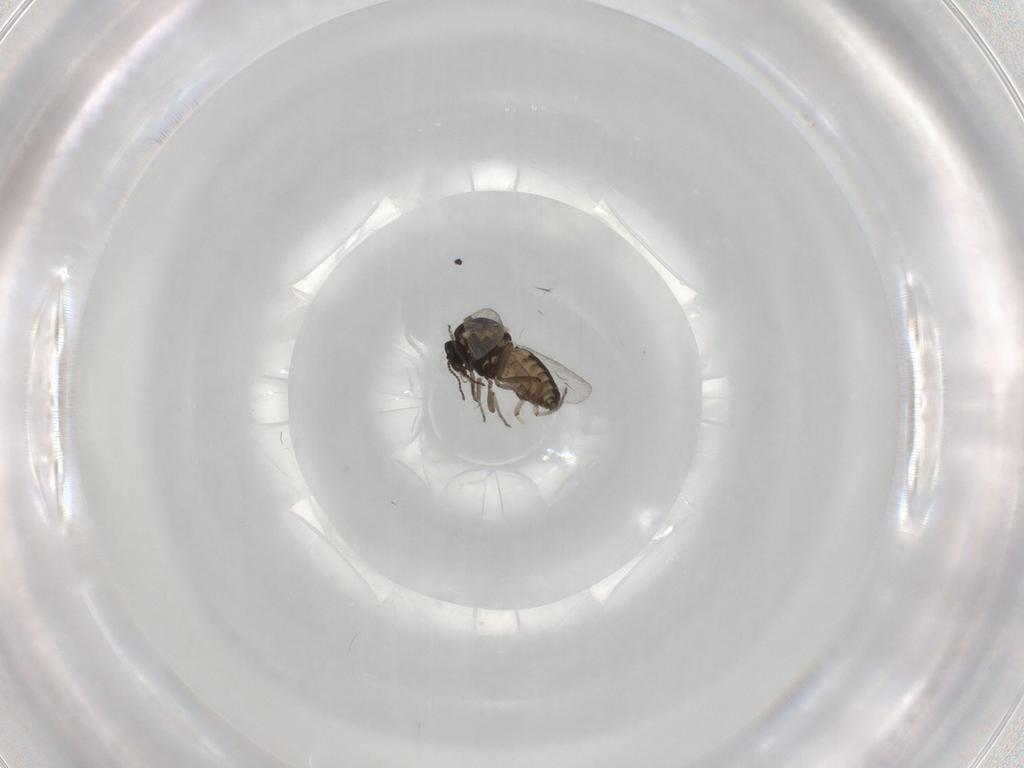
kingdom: Animalia
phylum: Arthropoda
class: Insecta
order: Diptera
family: Ceratopogonidae
